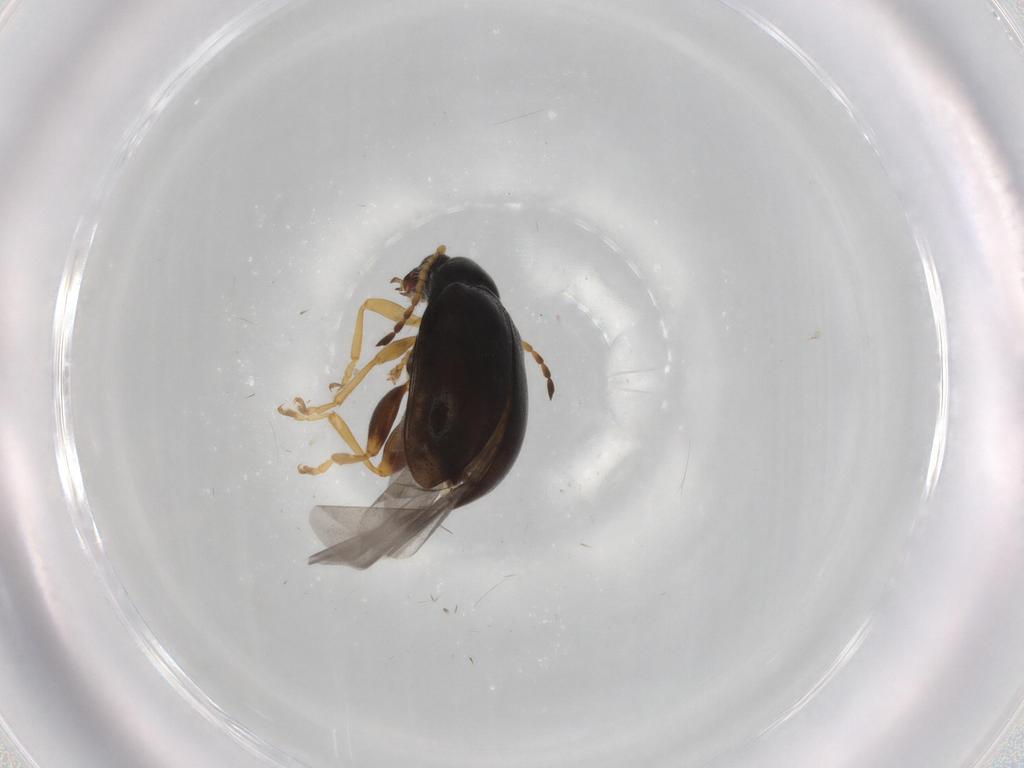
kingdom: Animalia
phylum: Arthropoda
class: Insecta
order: Coleoptera
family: Chrysomelidae
